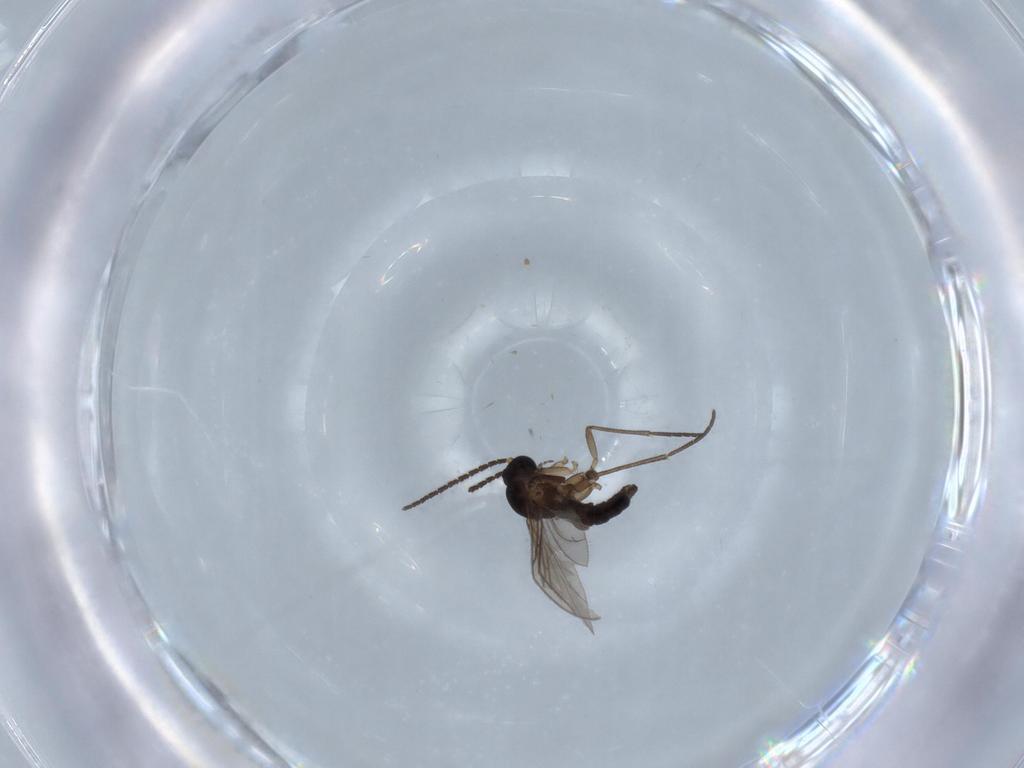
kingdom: Animalia
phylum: Arthropoda
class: Insecta
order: Diptera
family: Sciaridae
